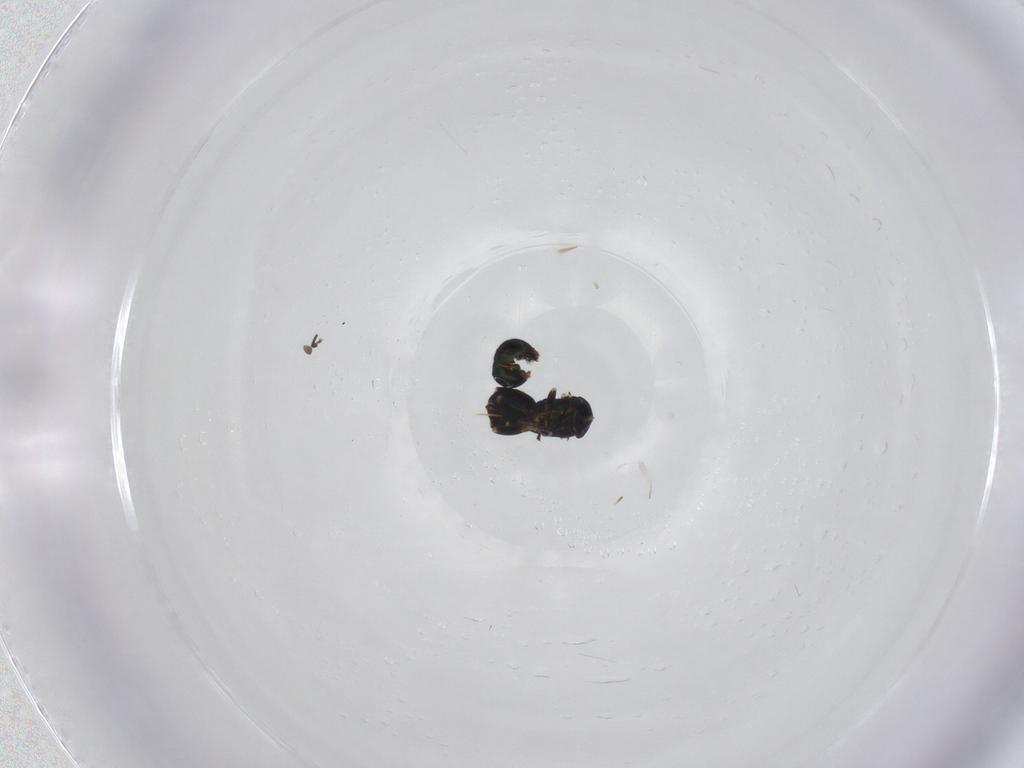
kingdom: Animalia
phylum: Arthropoda
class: Insecta
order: Hymenoptera
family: Eulophidae
